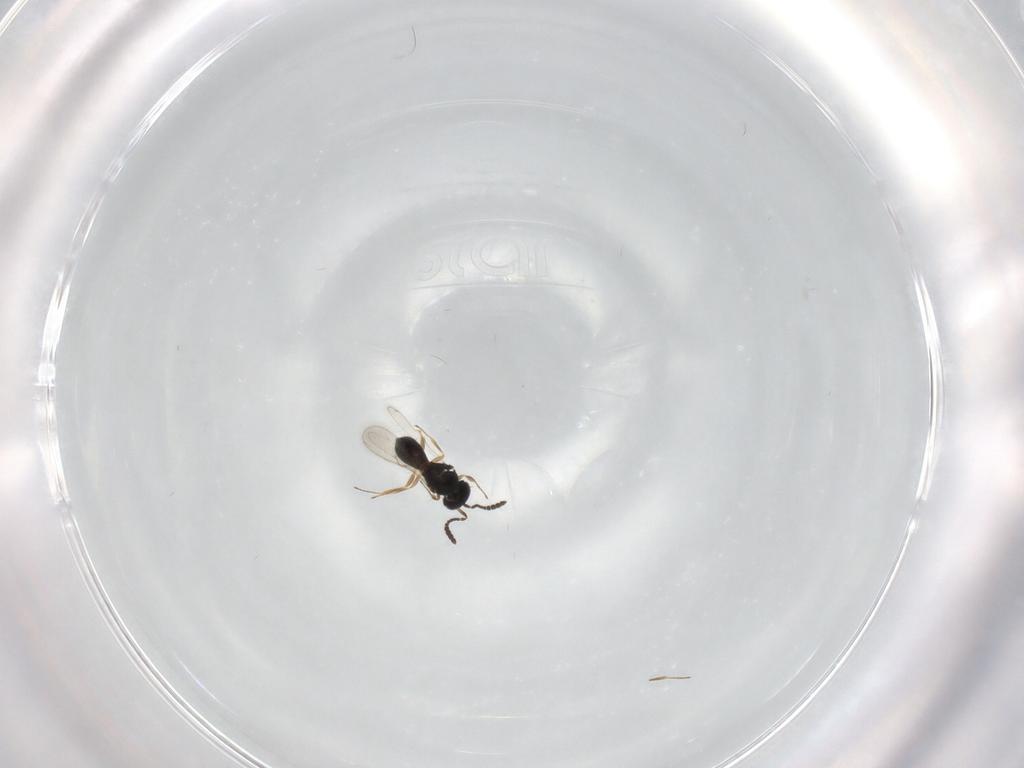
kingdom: Animalia
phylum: Arthropoda
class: Insecta
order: Hymenoptera
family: Scelionidae
